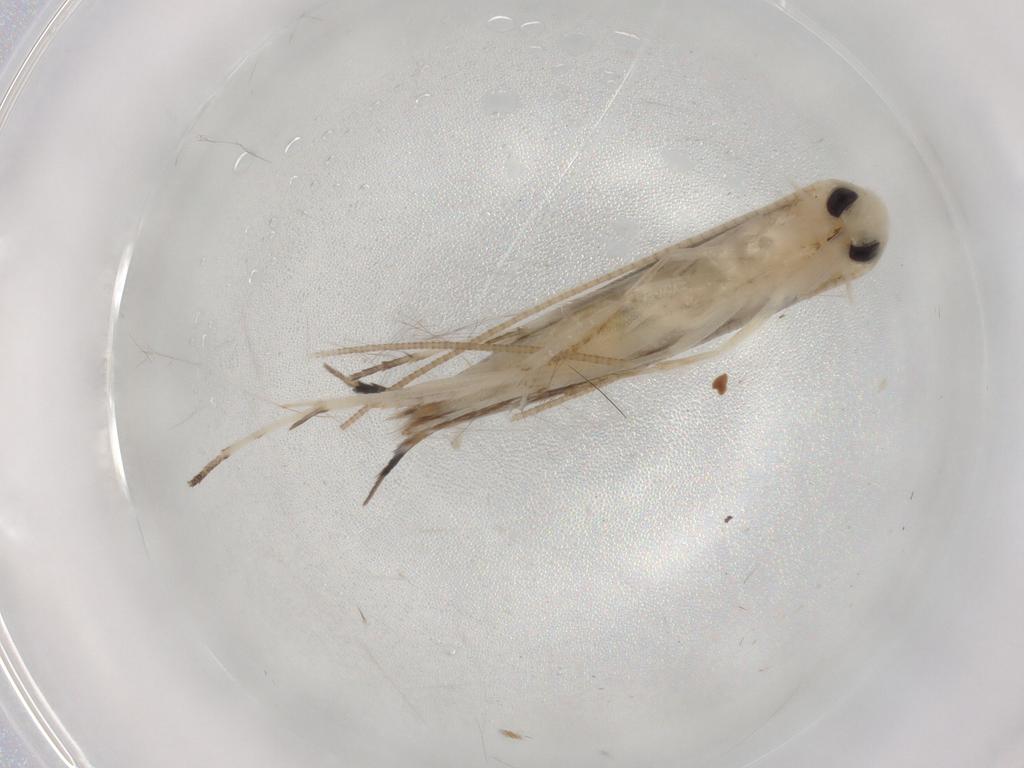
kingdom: Animalia
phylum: Arthropoda
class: Insecta
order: Lepidoptera
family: Crambidae
